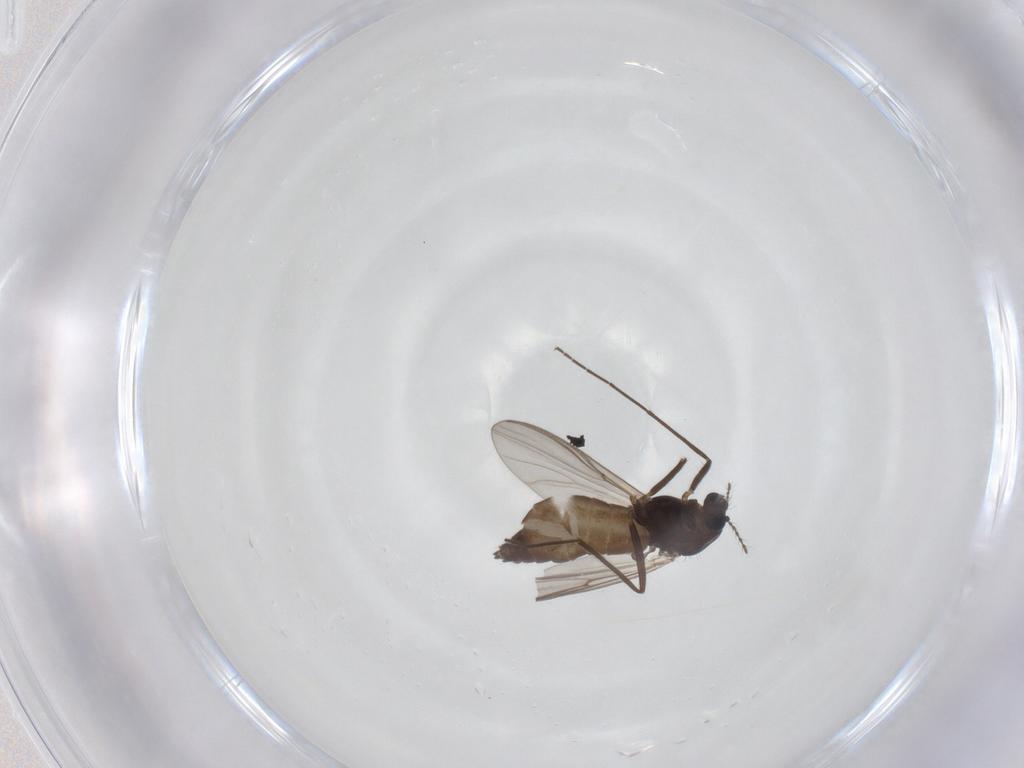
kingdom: Animalia
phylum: Arthropoda
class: Insecta
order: Diptera
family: Chironomidae
